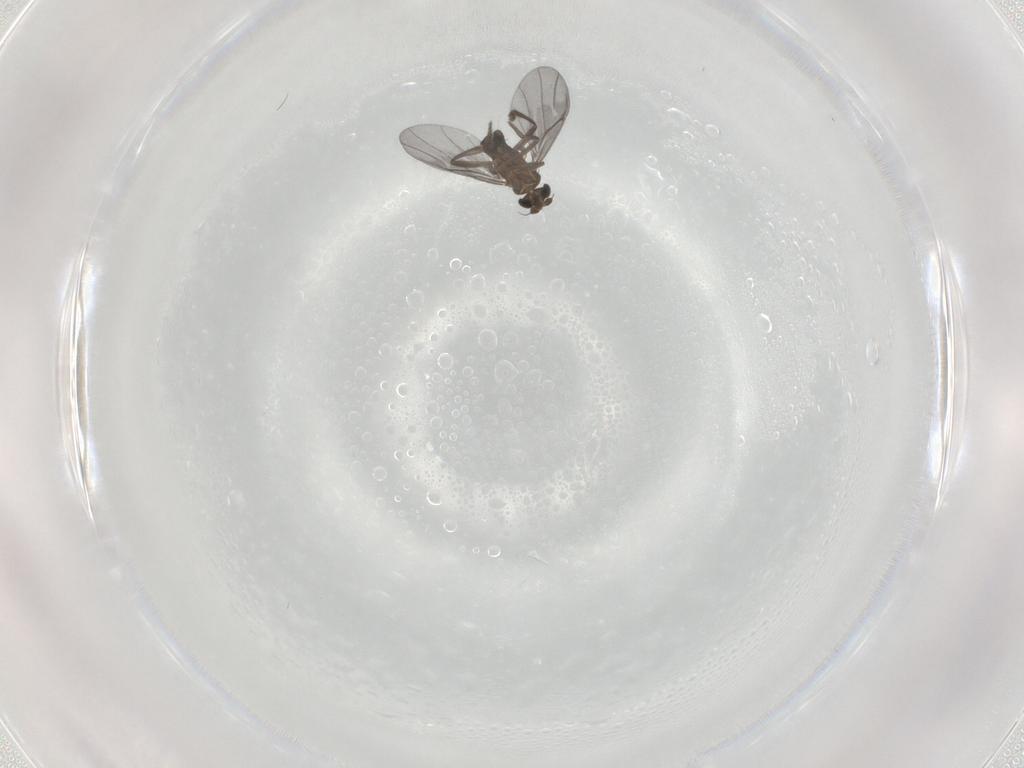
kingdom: Animalia
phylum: Arthropoda
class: Insecta
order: Diptera
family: Phoridae
